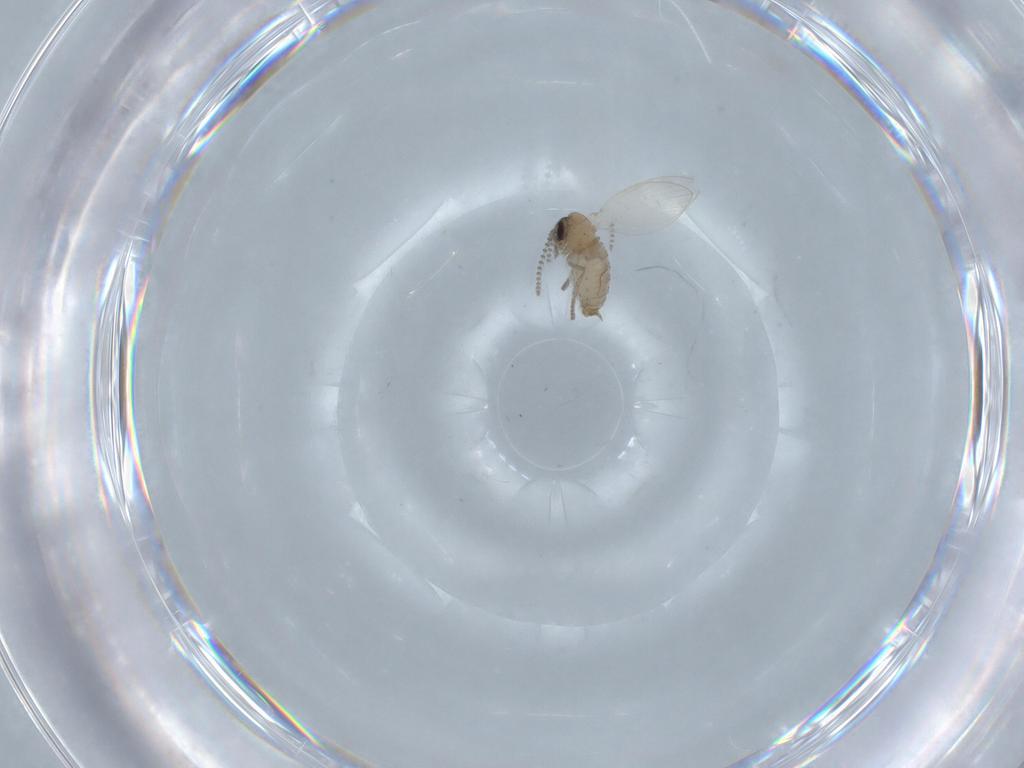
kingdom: Animalia
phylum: Arthropoda
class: Insecta
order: Diptera
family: Psychodidae
